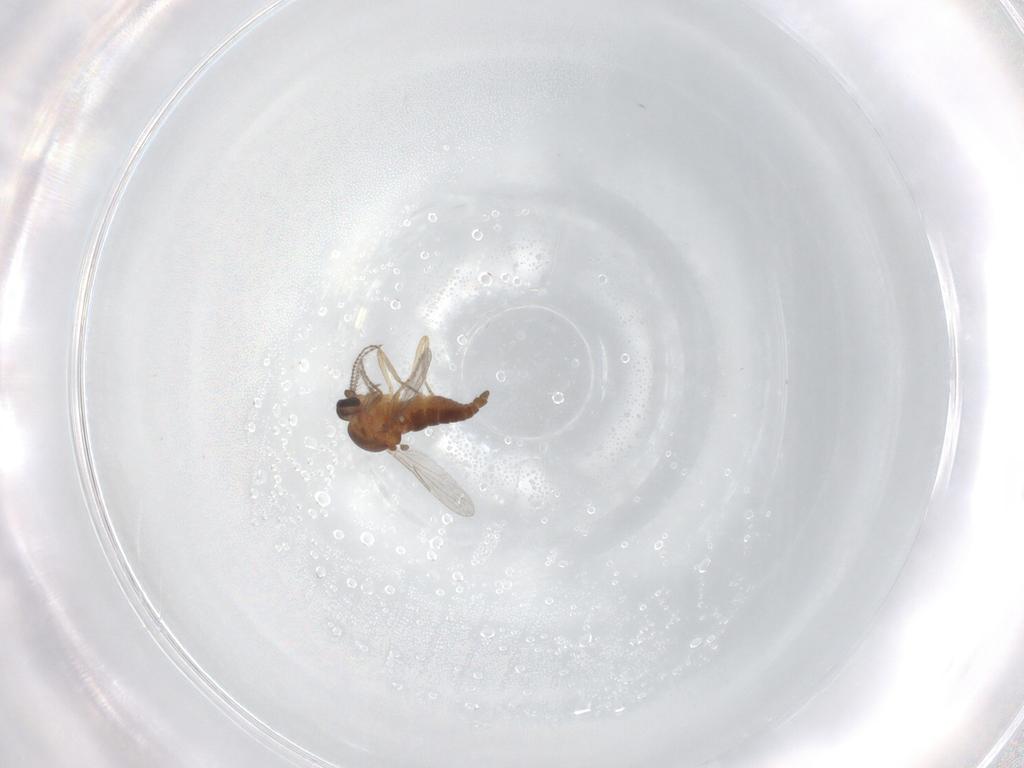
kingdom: Animalia
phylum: Arthropoda
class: Insecta
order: Diptera
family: Ceratopogonidae
